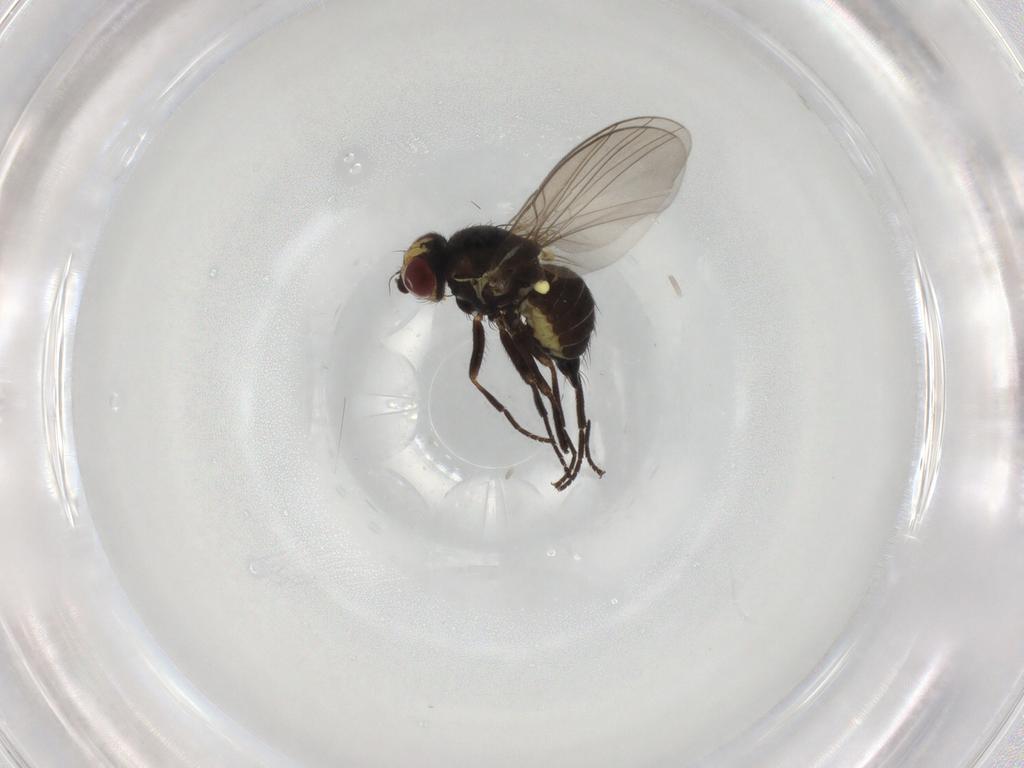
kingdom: Animalia
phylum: Arthropoda
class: Insecta
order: Diptera
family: Agromyzidae
